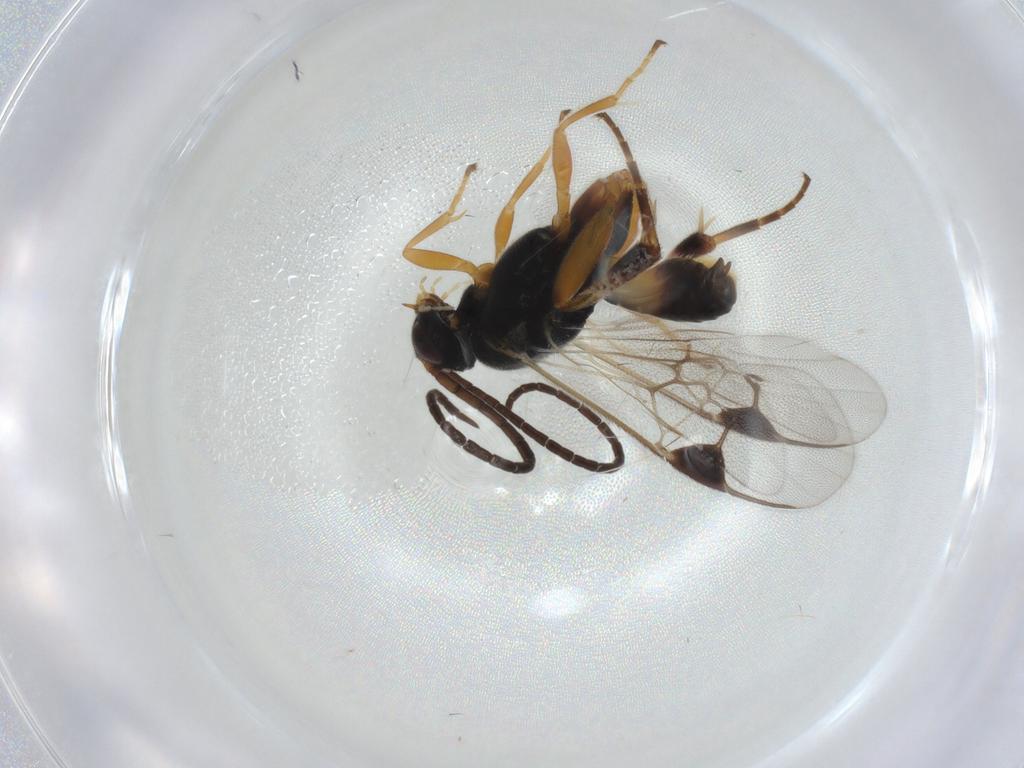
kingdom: Animalia
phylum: Arthropoda
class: Insecta
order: Hymenoptera
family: Braconidae
